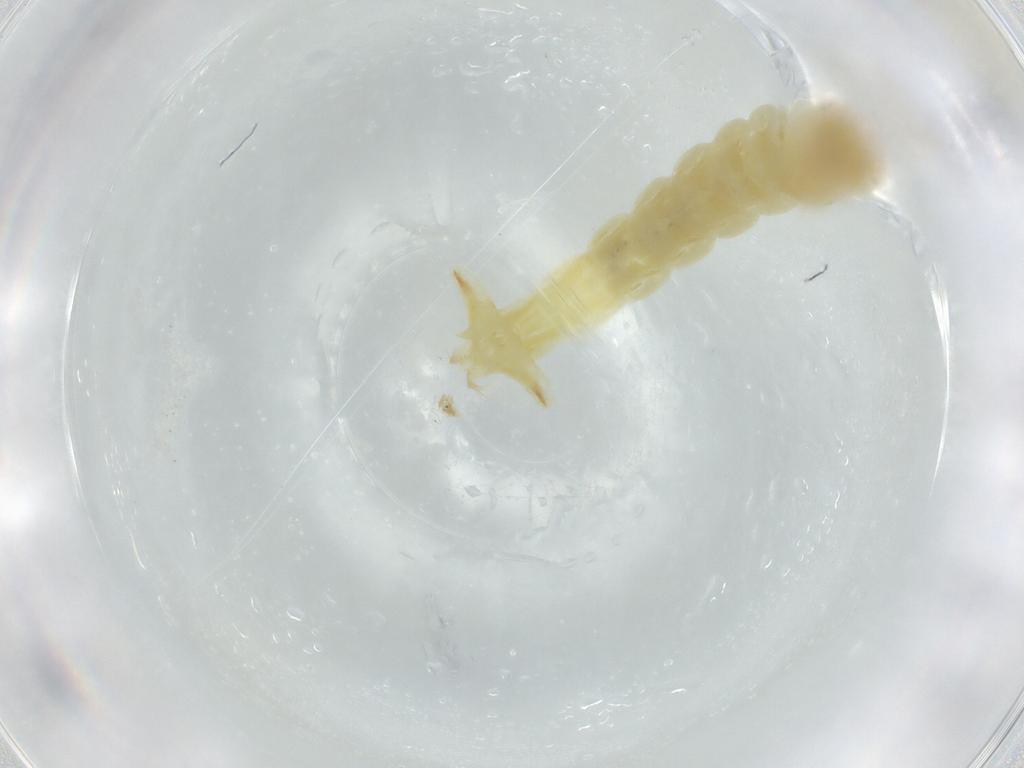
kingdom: Animalia
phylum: Arthropoda
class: Insecta
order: Diptera
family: Chironomidae
